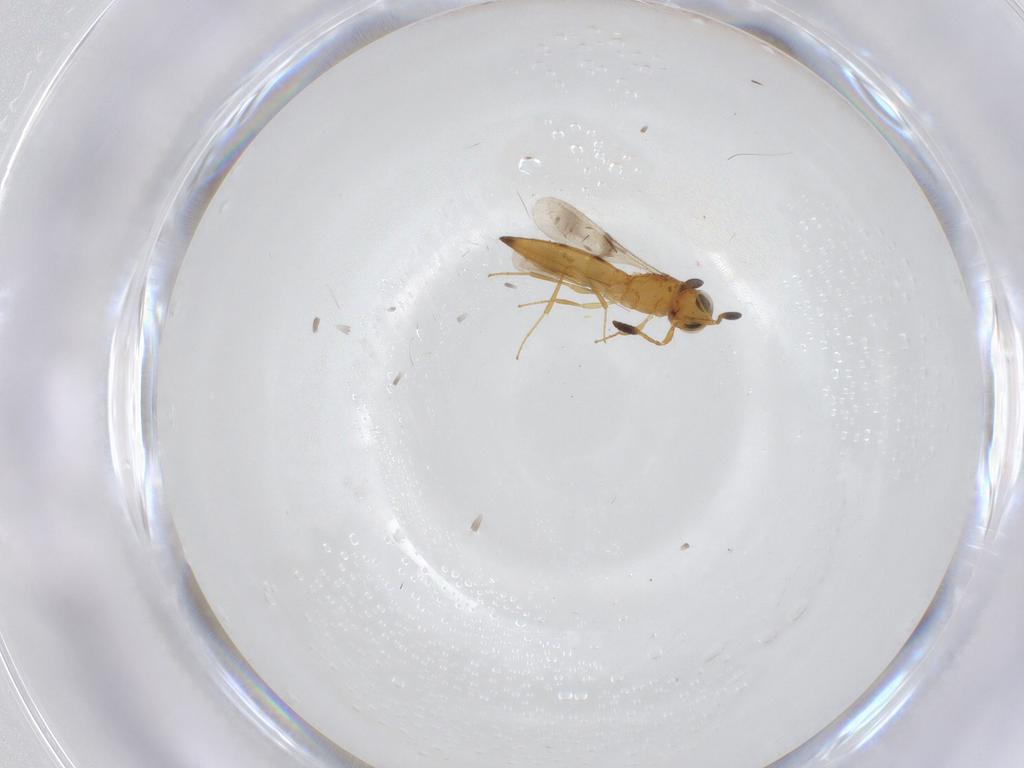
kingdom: Animalia
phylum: Arthropoda
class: Insecta
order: Hymenoptera
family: Scelionidae
